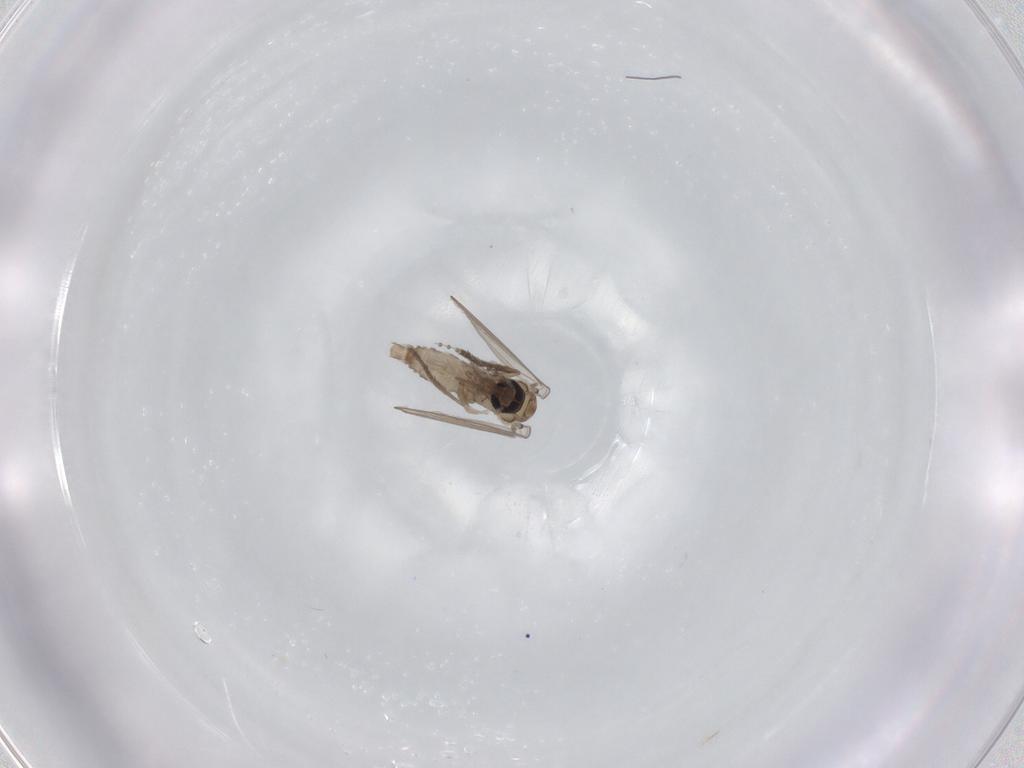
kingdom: Animalia
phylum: Arthropoda
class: Insecta
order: Diptera
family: Psychodidae
